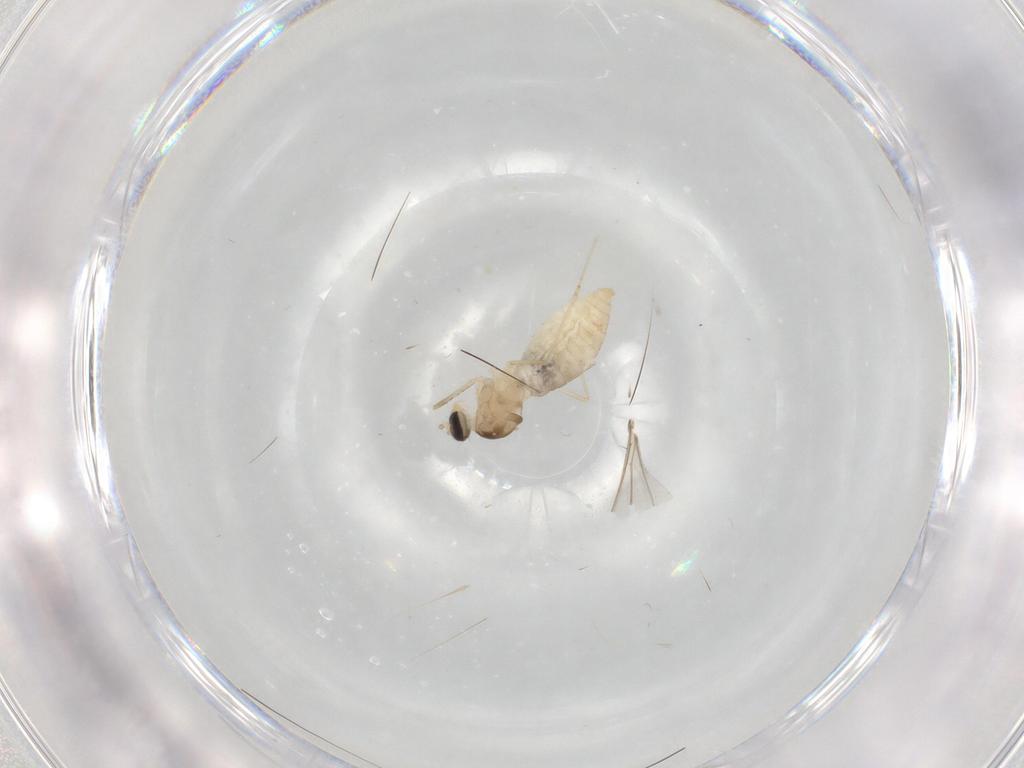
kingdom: Animalia
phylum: Arthropoda
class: Insecta
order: Diptera
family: Cecidomyiidae
